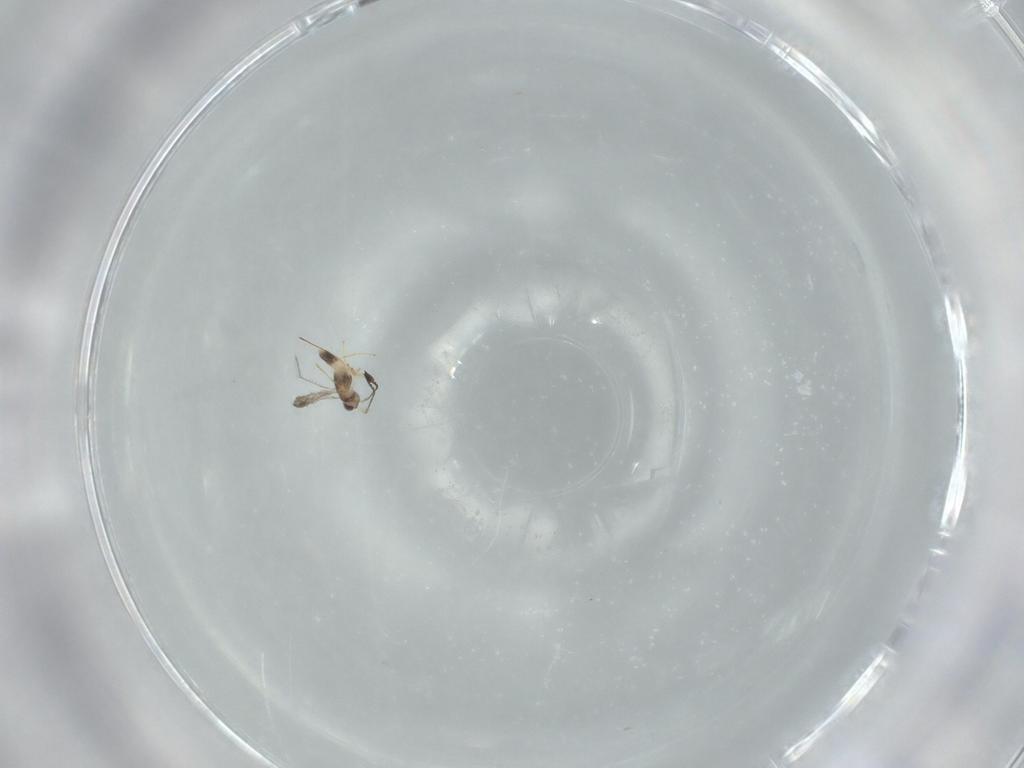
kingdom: Animalia
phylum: Arthropoda
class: Insecta
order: Hymenoptera
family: Mymaridae
